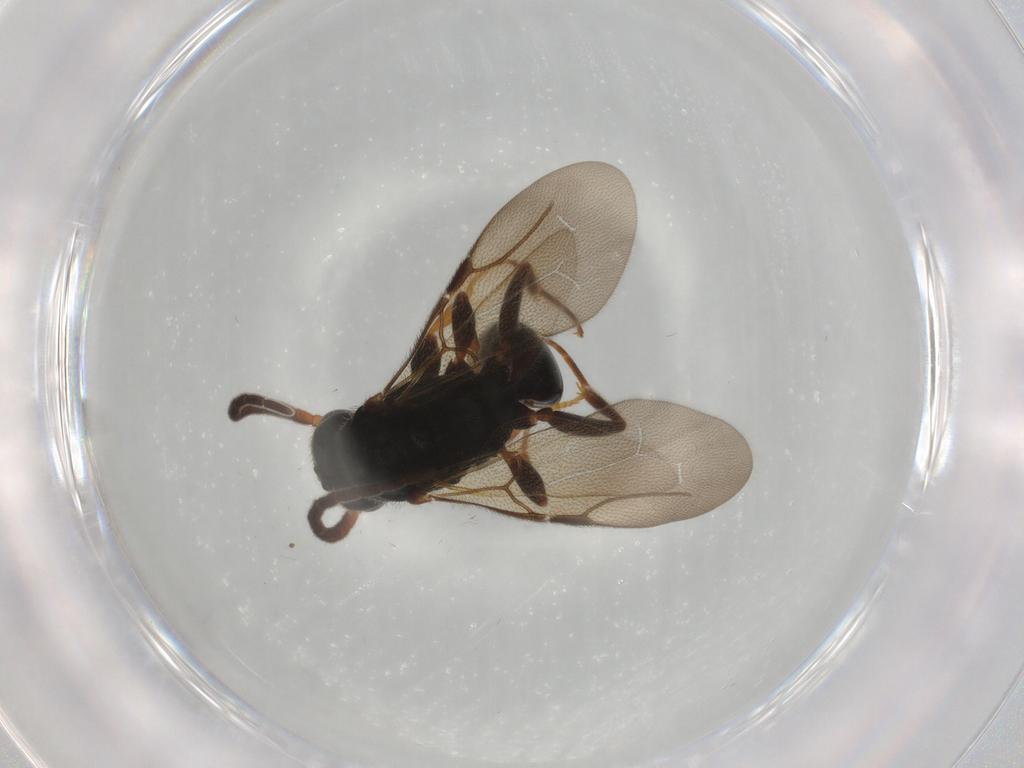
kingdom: Animalia
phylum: Arthropoda
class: Insecta
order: Hymenoptera
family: Bethylidae
